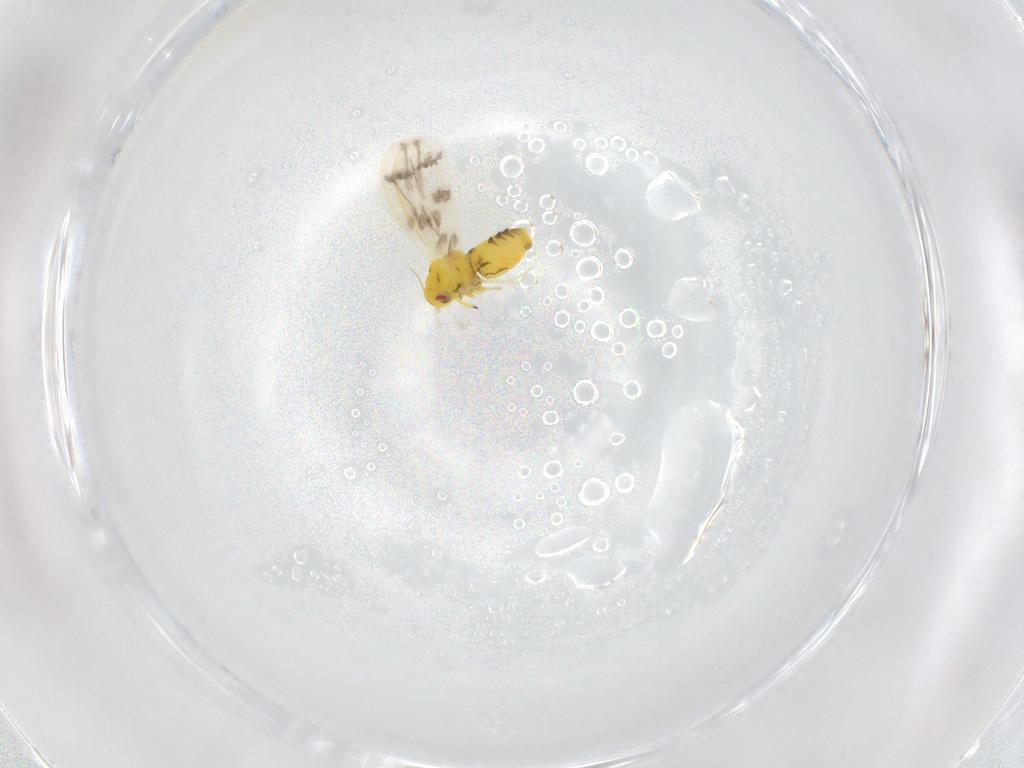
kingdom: Animalia
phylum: Arthropoda
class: Insecta
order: Hemiptera
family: Aleyrodidae
